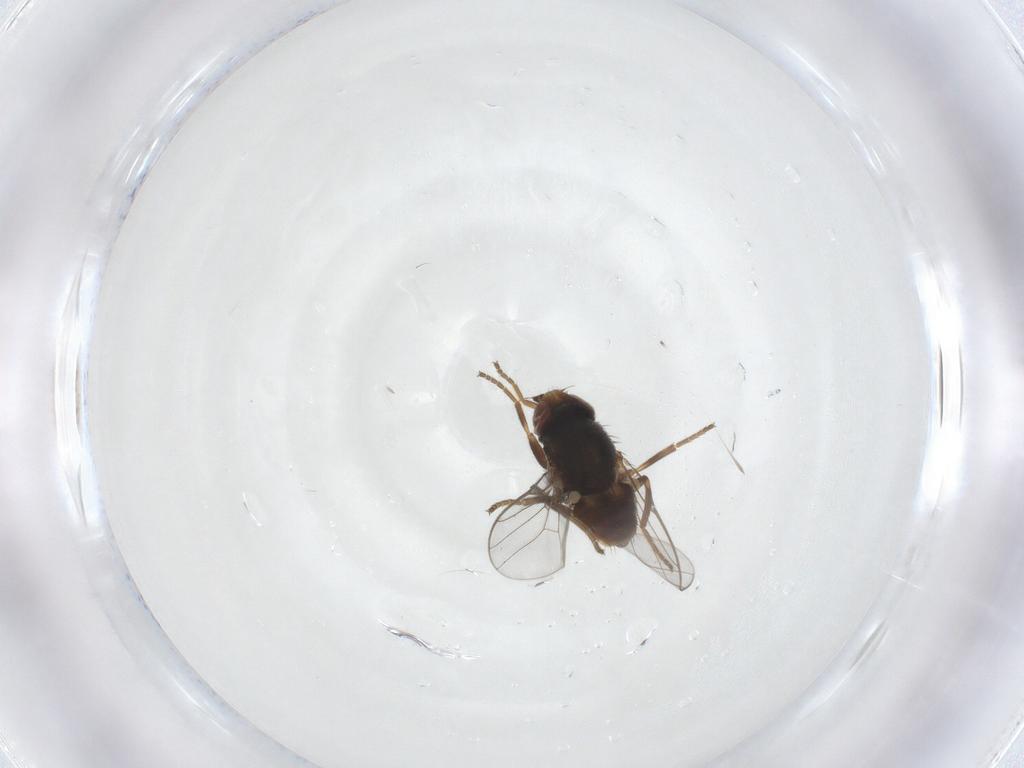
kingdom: Animalia
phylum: Arthropoda
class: Insecta
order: Diptera
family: Chloropidae
